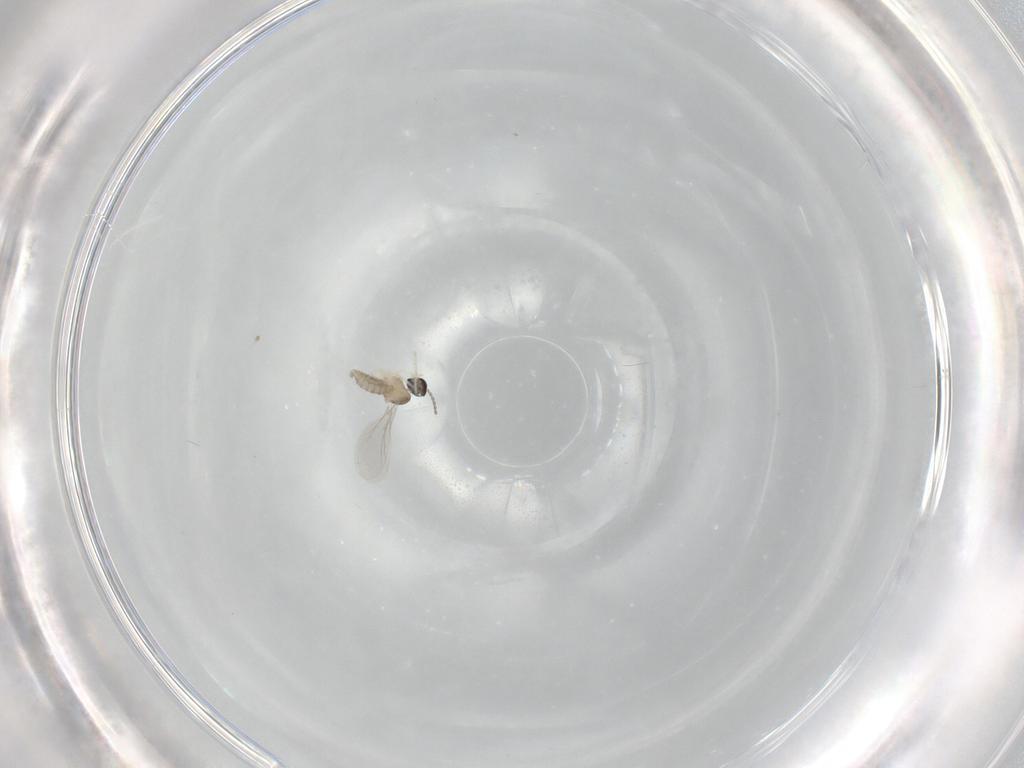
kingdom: Animalia
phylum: Arthropoda
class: Insecta
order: Diptera
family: Cecidomyiidae
